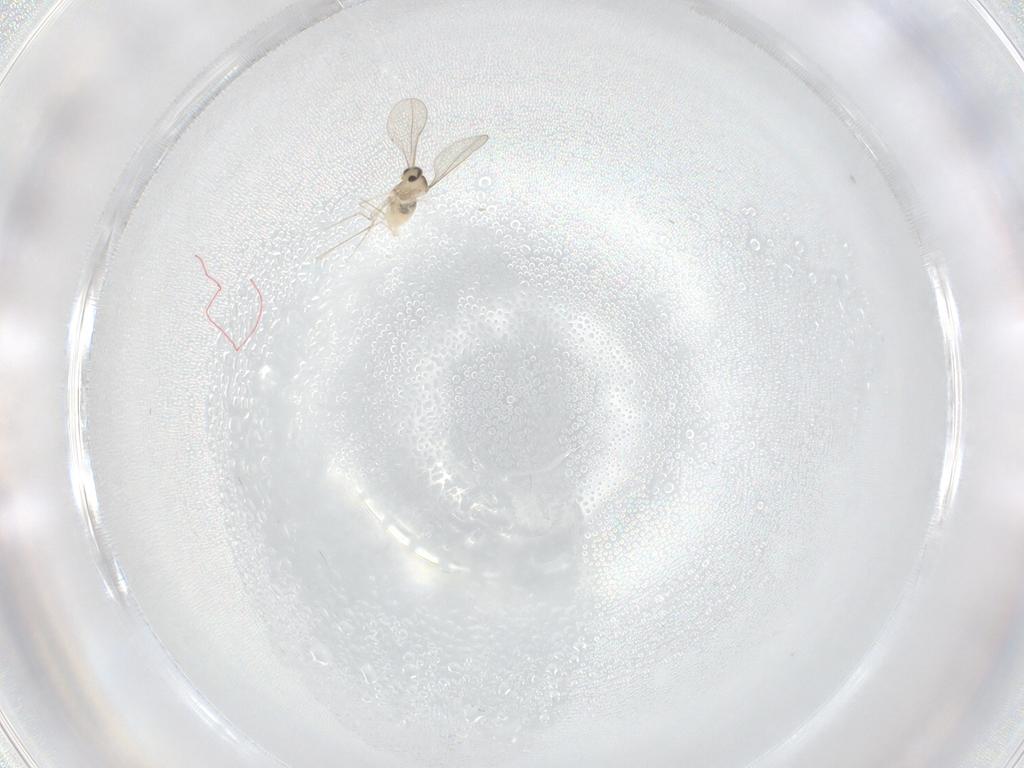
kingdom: Animalia
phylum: Arthropoda
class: Insecta
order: Diptera
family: Cecidomyiidae
